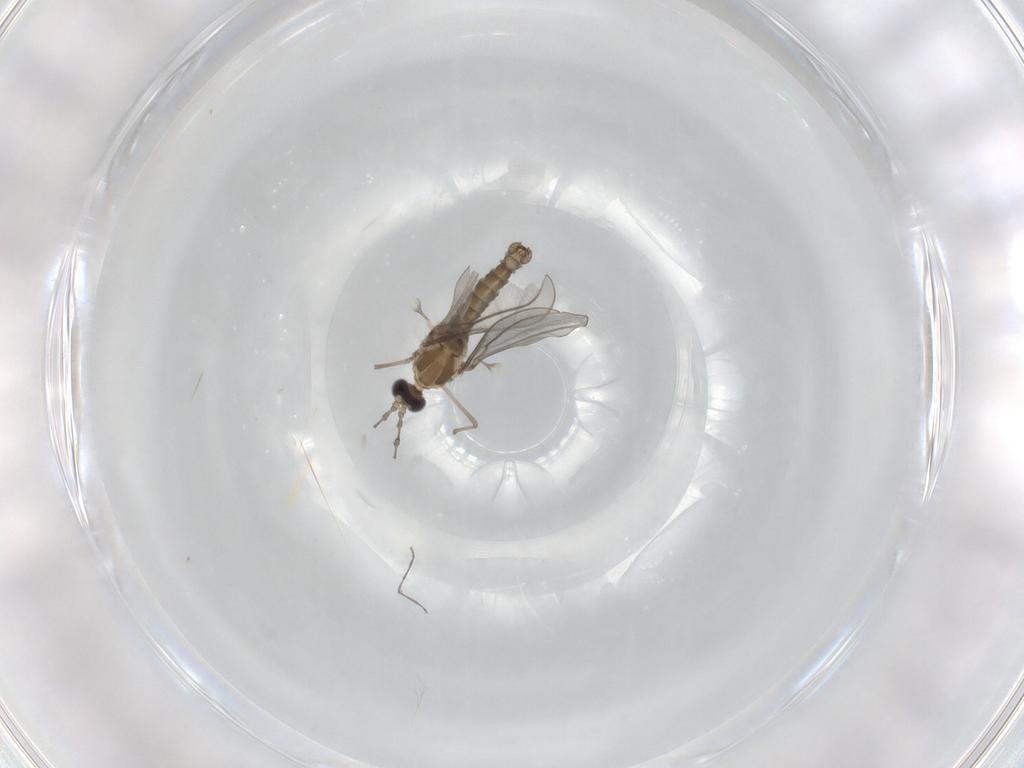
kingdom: Animalia
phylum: Arthropoda
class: Insecta
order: Diptera
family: Cecidomyiidae
